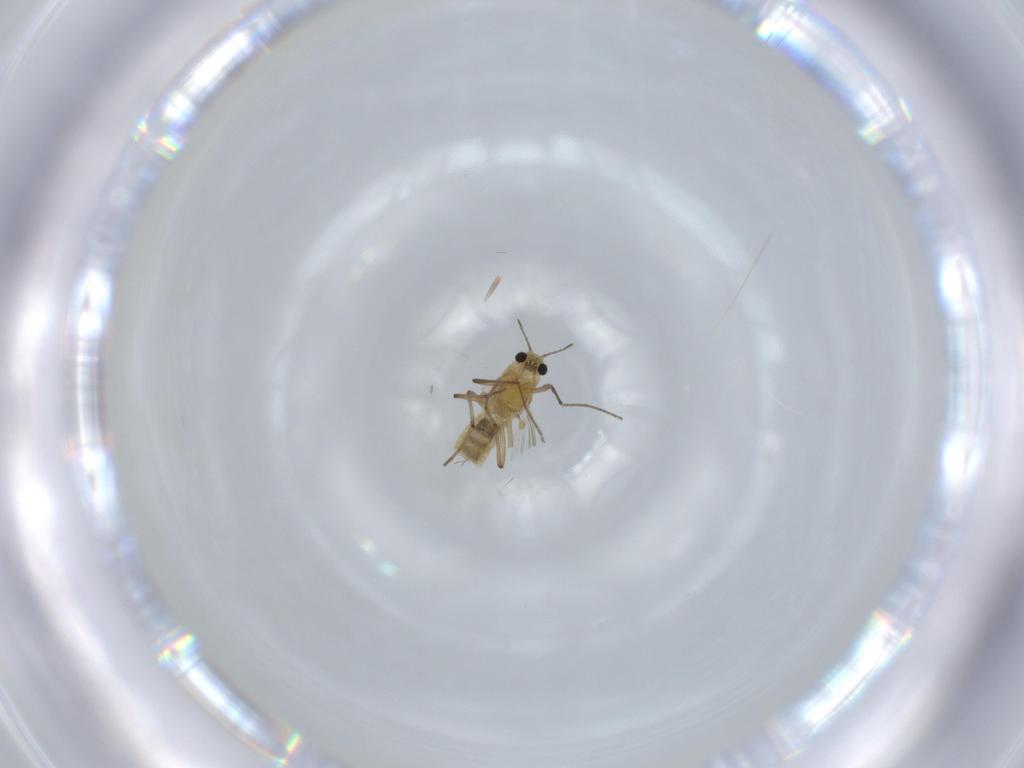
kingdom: Animalia
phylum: Arthropoda
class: Insecta
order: Diptera
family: Chironomidae
